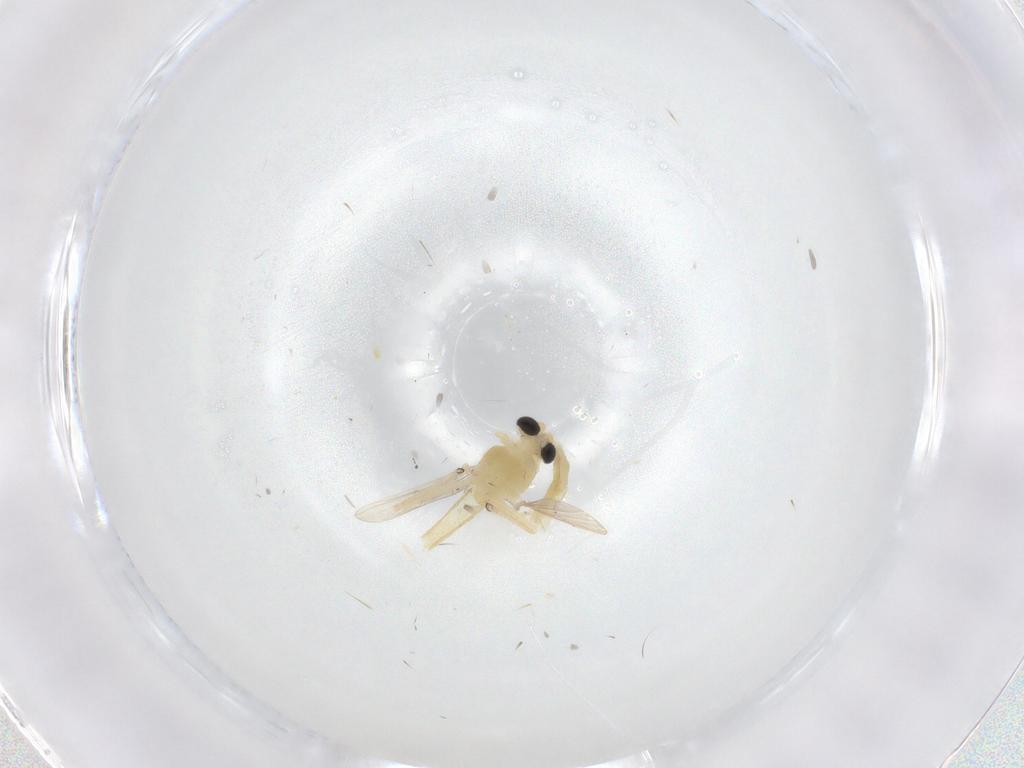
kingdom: Animalia
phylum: Arthropoda
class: Insecta
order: Diptera
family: Chironomidae
